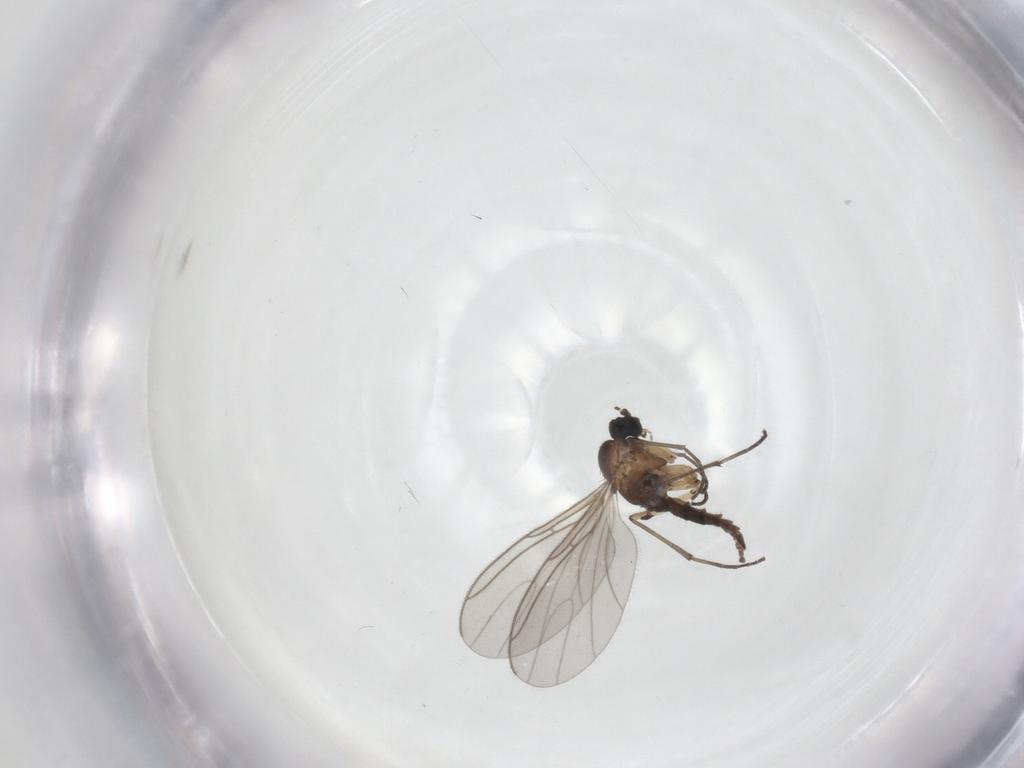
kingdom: Animalia
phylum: Arthropoda
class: Insecta
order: Diptera
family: Sciaridae
